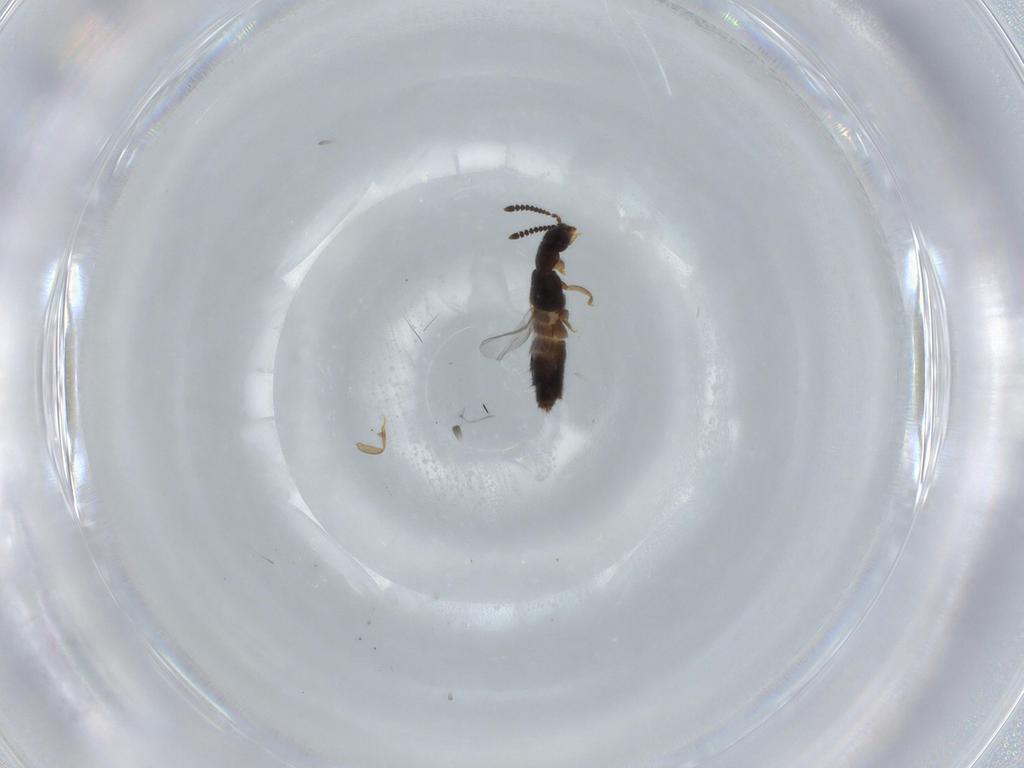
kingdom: Animalia
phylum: Arthropoda
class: Insecta
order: Coleoptera
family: Staphylinidae
